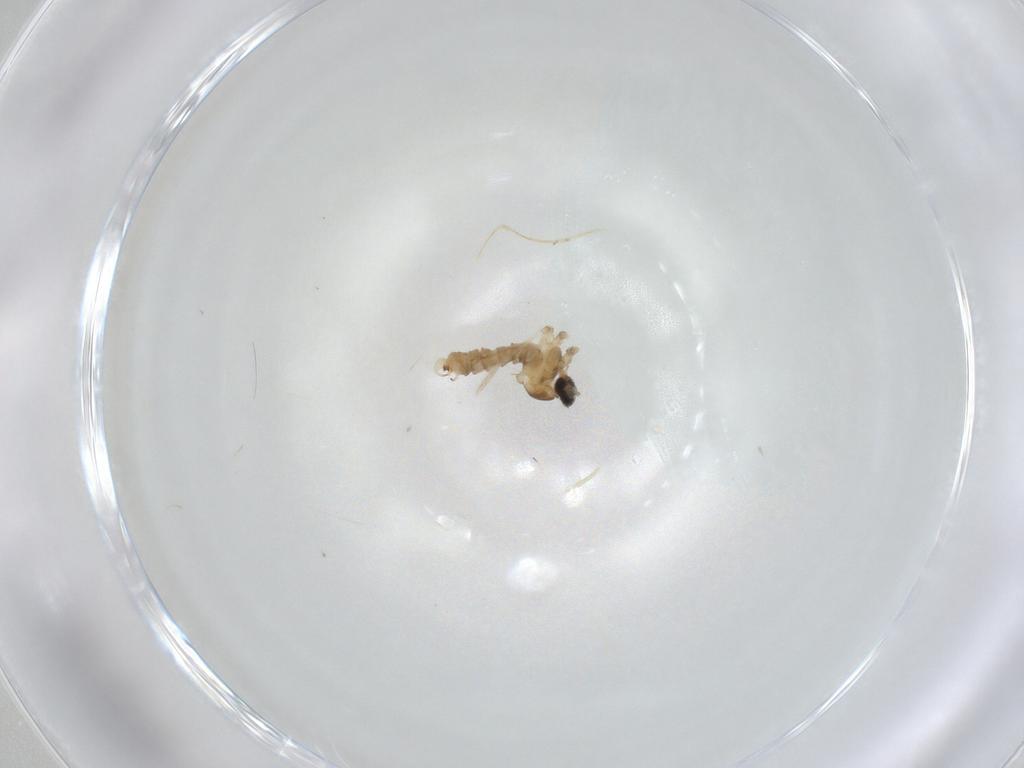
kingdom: Animalia
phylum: Arthropoda
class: Insecta
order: Diptera
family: Cecidomyiidae
